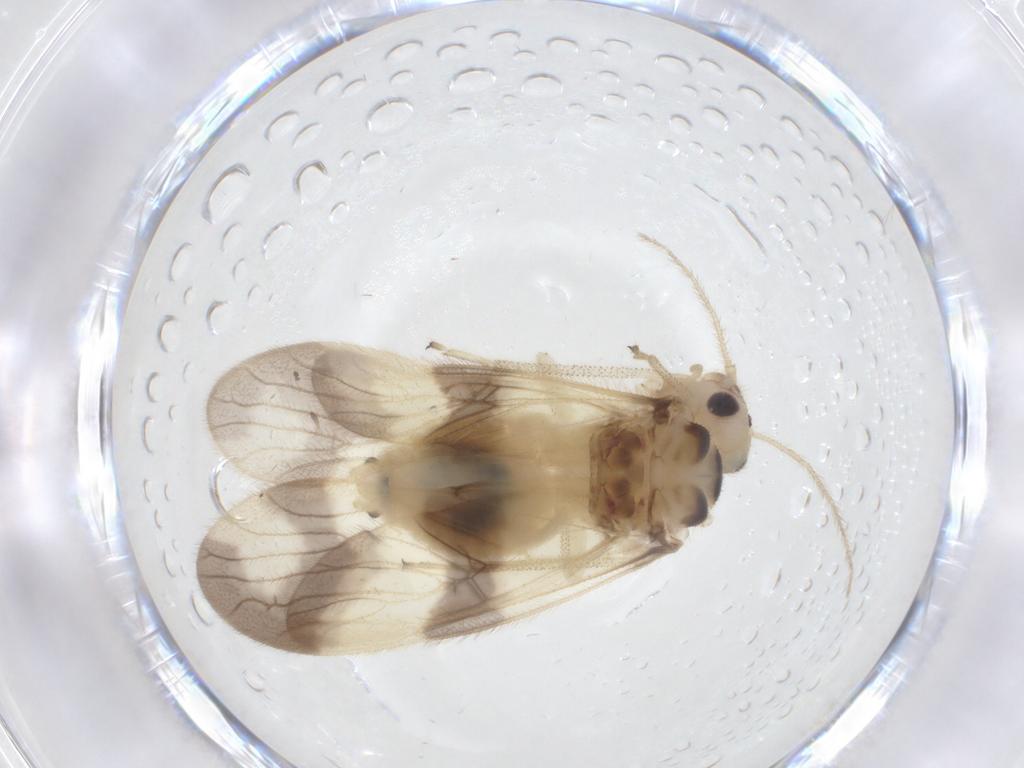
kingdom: Animalia
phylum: Arthropoda
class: Insecta
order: Psocodea
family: Amphipsocidae
